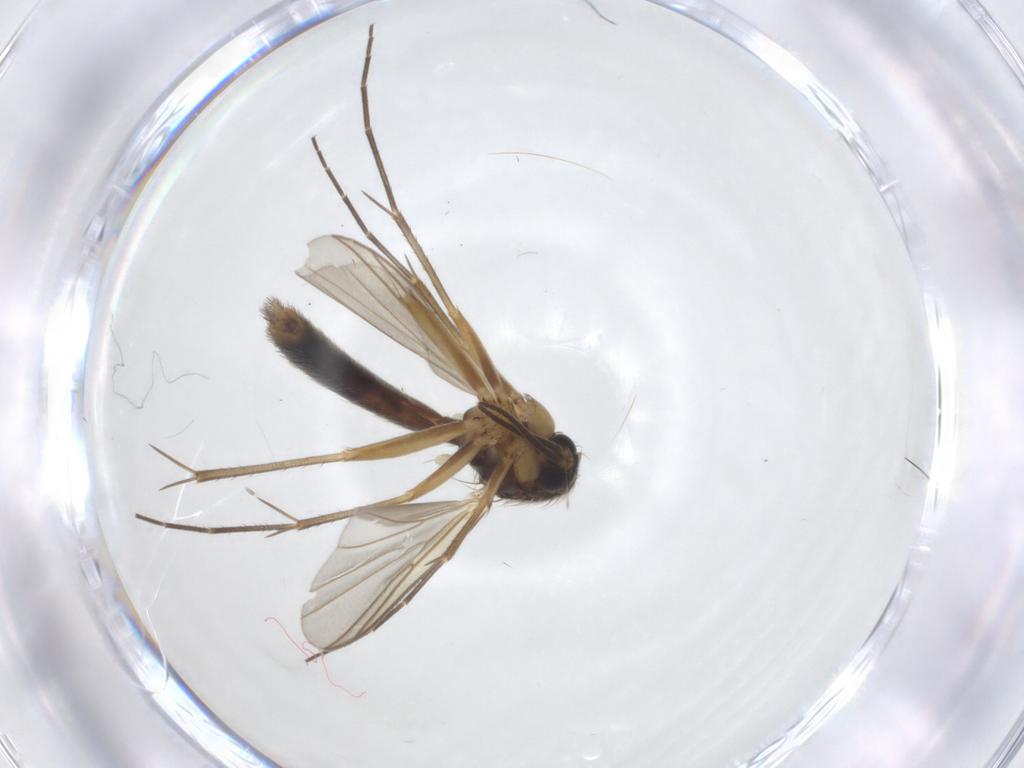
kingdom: Animalia
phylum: Arthropoda
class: Insecta
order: Diptera
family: Mycetophilidae
